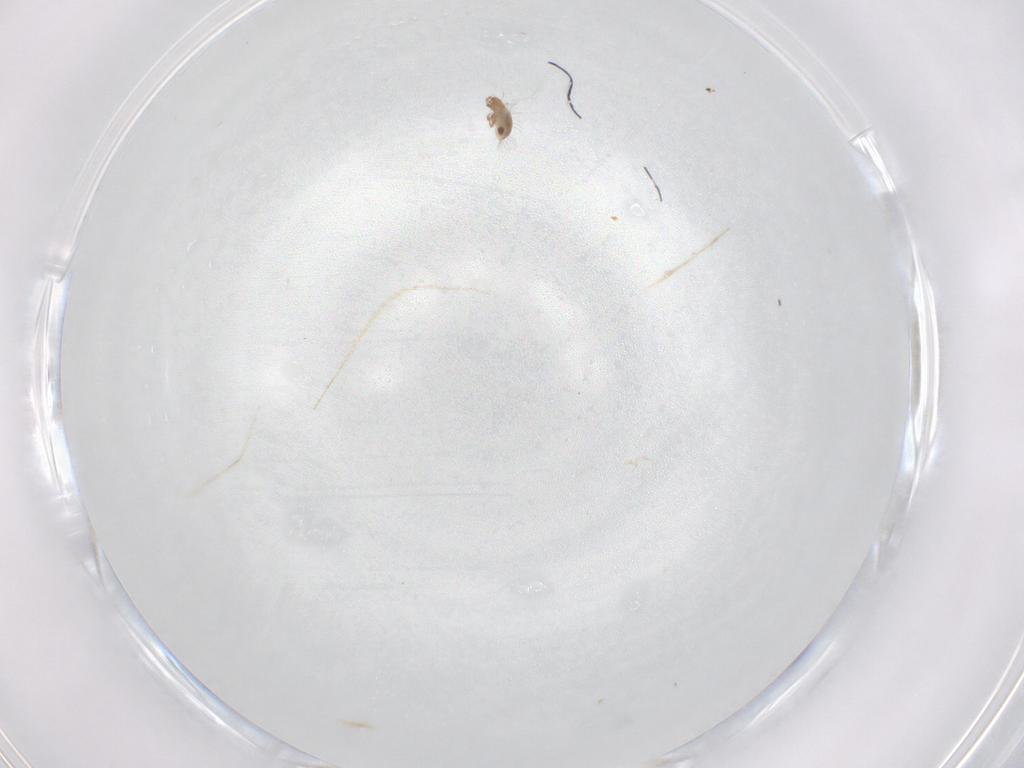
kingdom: Animalia
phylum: Arthropoda
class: Arachnida
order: Sarcoptiformes
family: Humerobatidae
